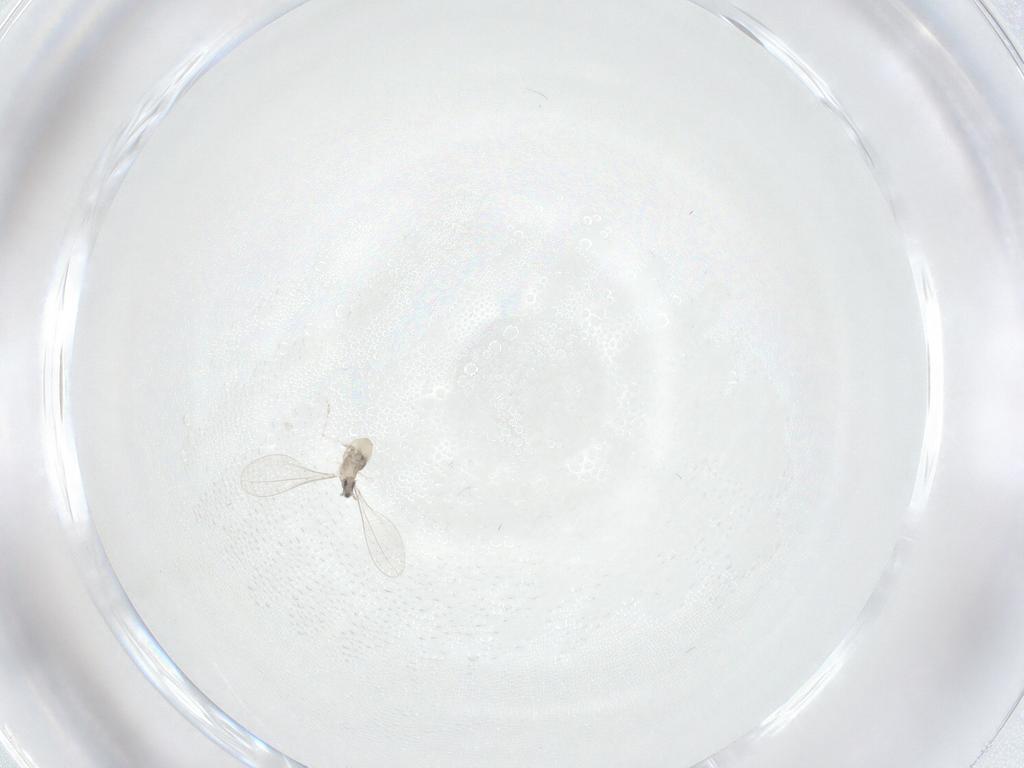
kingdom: Animalia
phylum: Arthropoda
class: Insecta
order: Diptera
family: Cecidomyiidae
